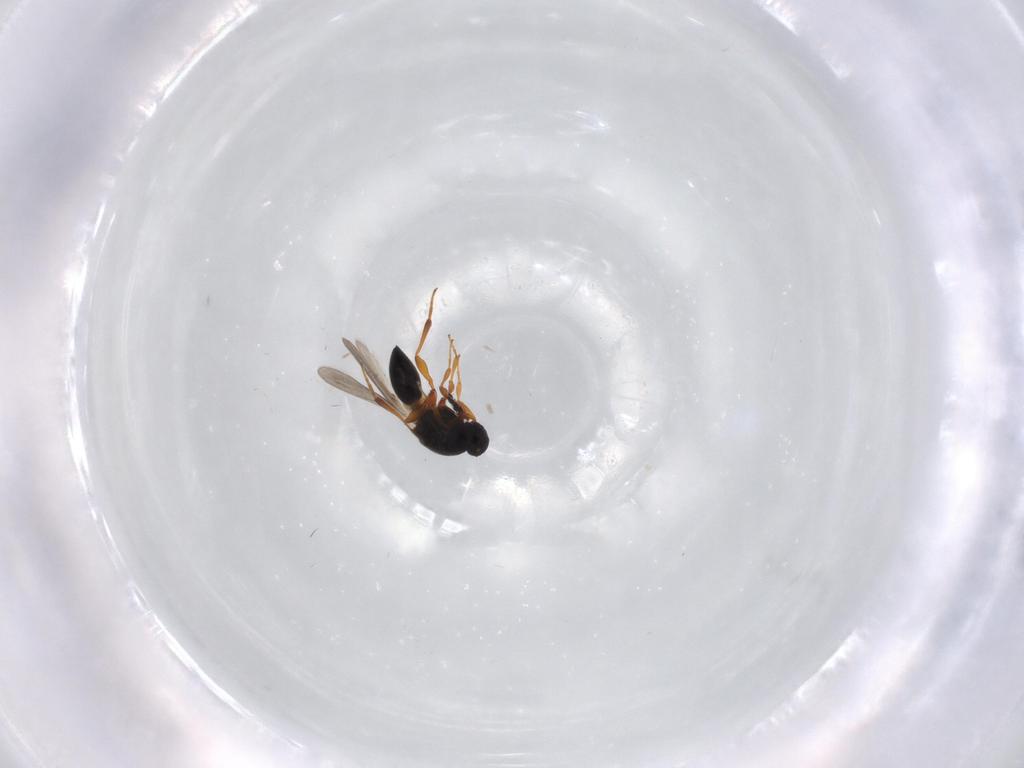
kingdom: Animalia
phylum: Arthropoda
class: Insecta
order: Hymenoptera
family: Platygastridae
